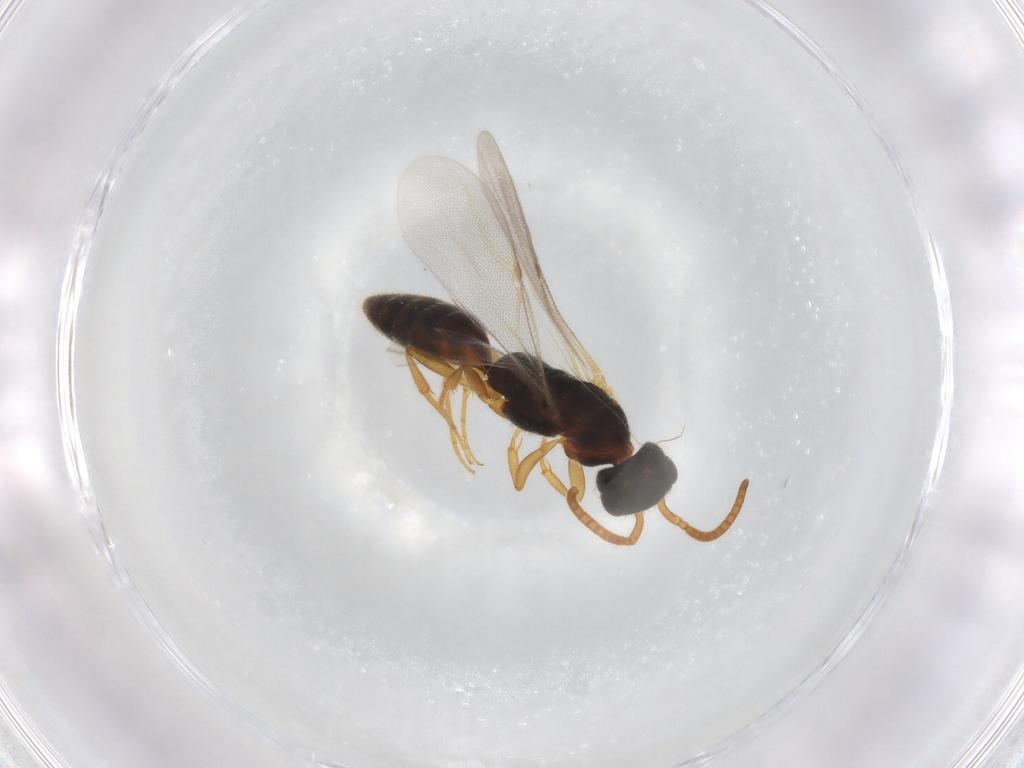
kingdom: Animalia
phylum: Arthropoda
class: Insecta
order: Hymenoptera
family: Bethylidae
